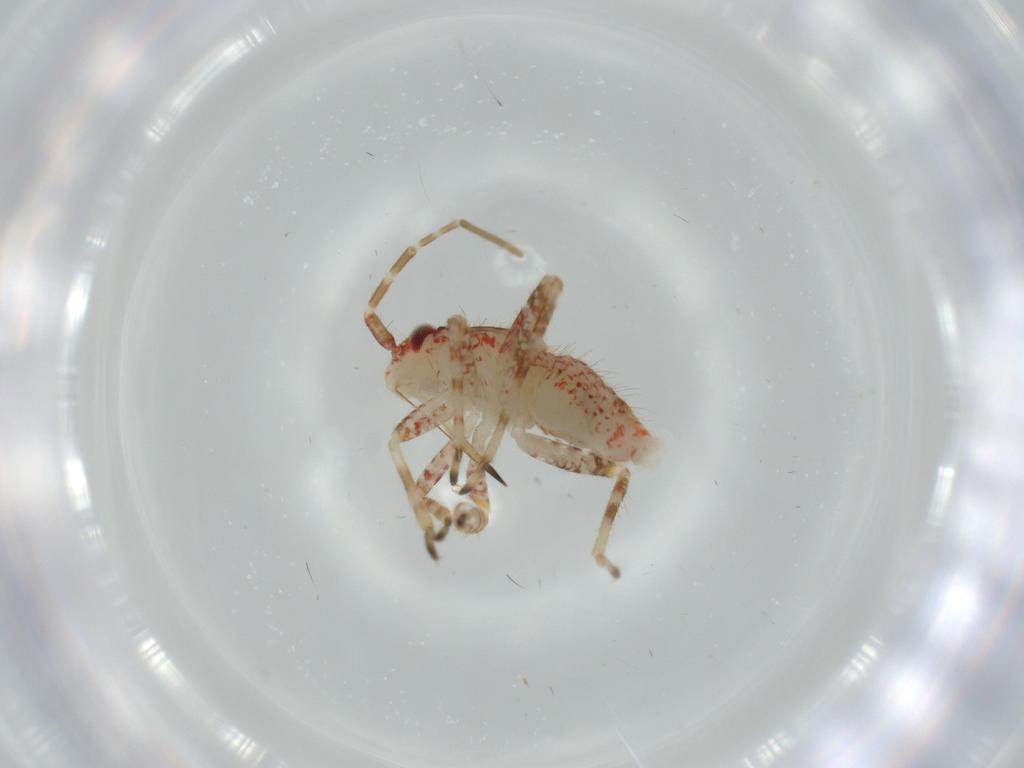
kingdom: Animalia
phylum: Arthropoda
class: Insecta
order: Hemiptera
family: Miridae
